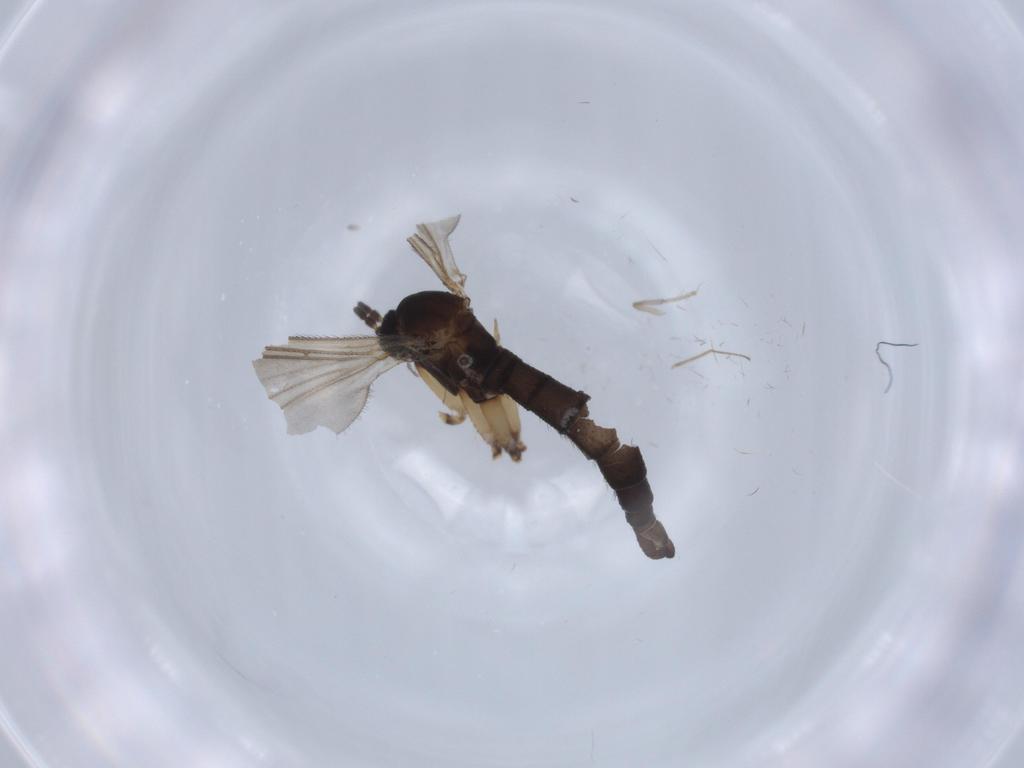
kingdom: Animalia
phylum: Arthropoda
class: Insecta
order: Diptera
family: Sciaridae
